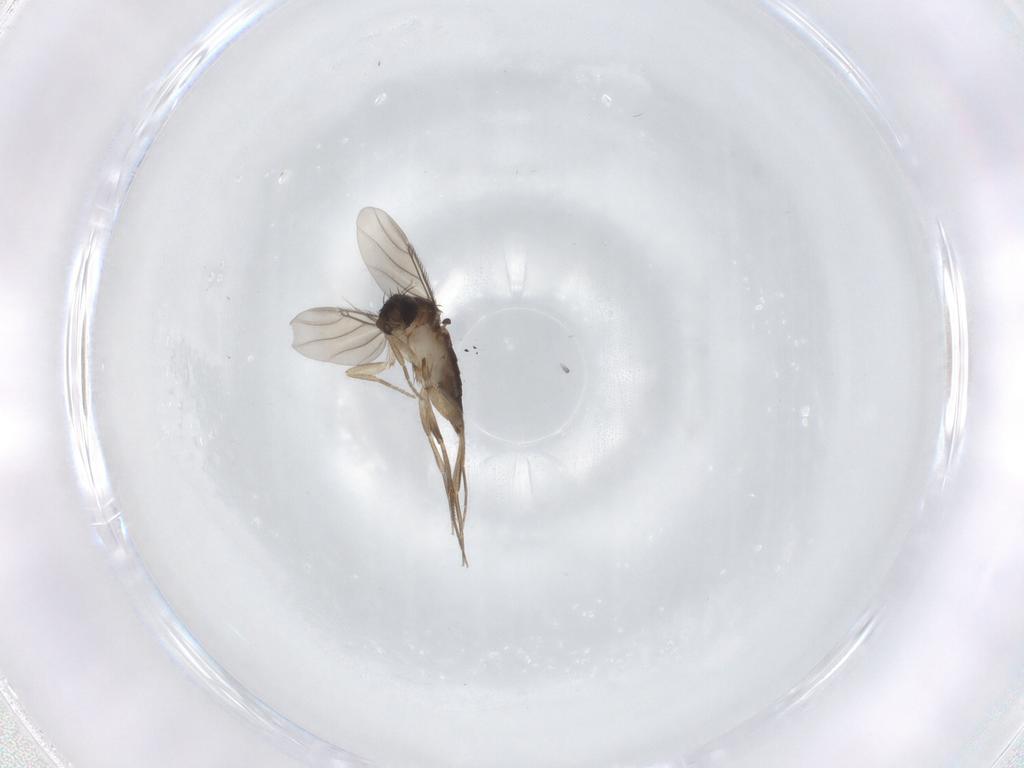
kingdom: Animalia
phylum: Arthropoda
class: Insecta
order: Diptera
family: Phoridae
